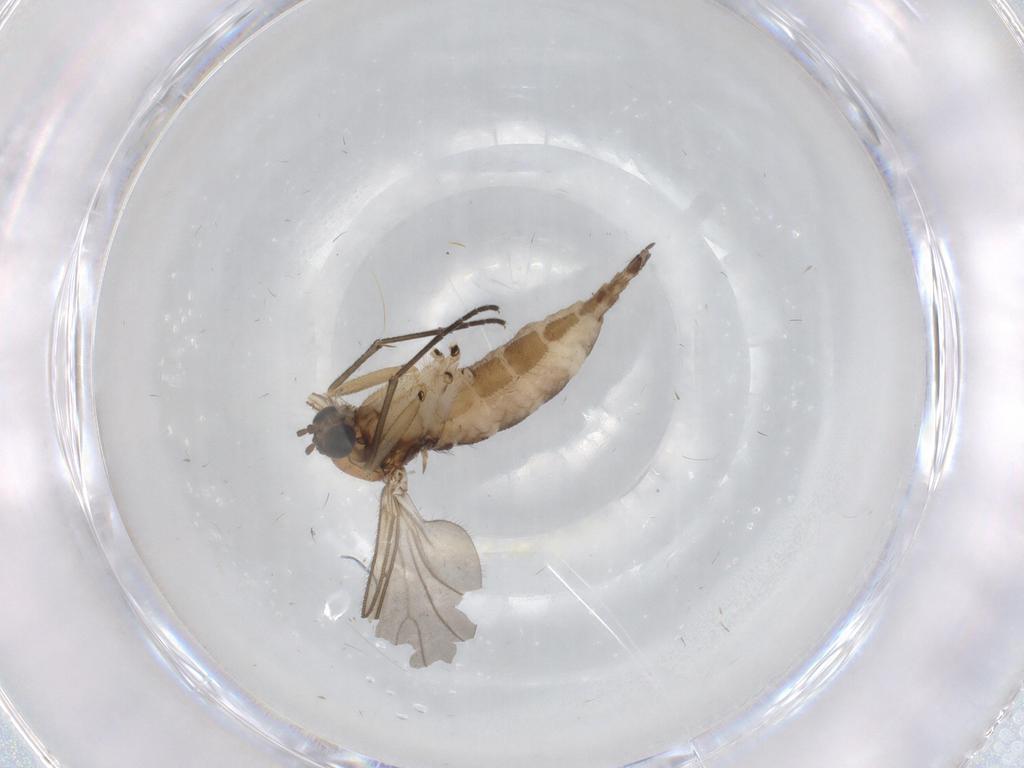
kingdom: Animalia
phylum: Arthropoda
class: Insecta
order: Diptera
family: Sciaridae
